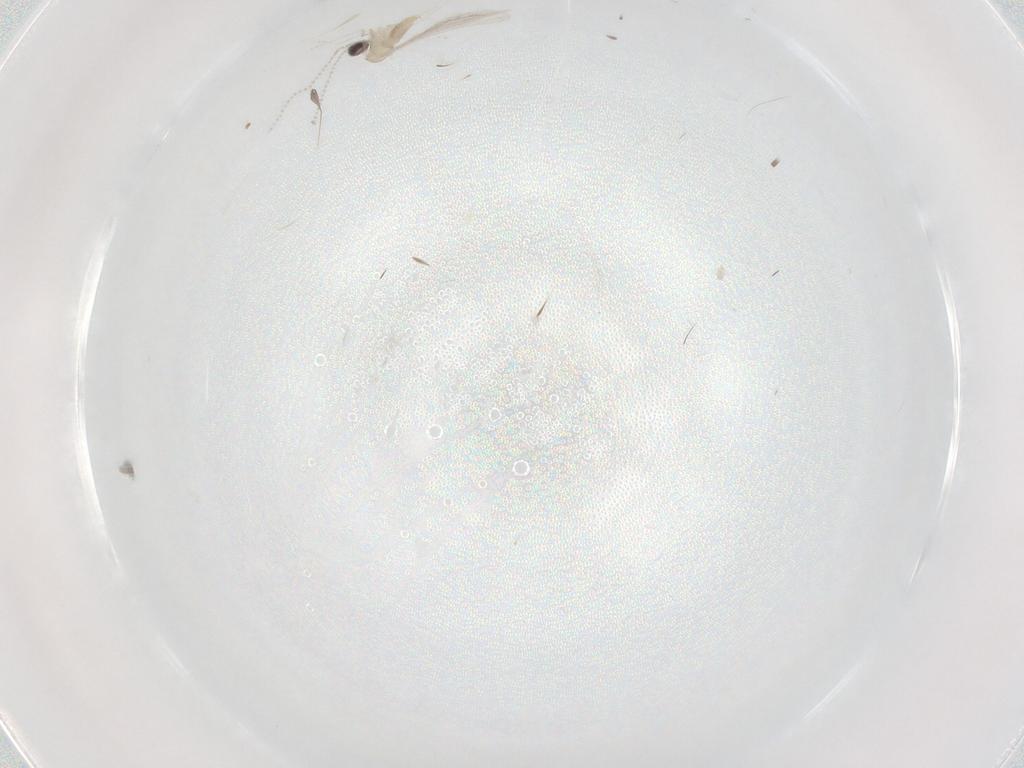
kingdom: Animalia
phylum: Arthropoda
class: Insecta
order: Diptera
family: Cecidomyiidae
